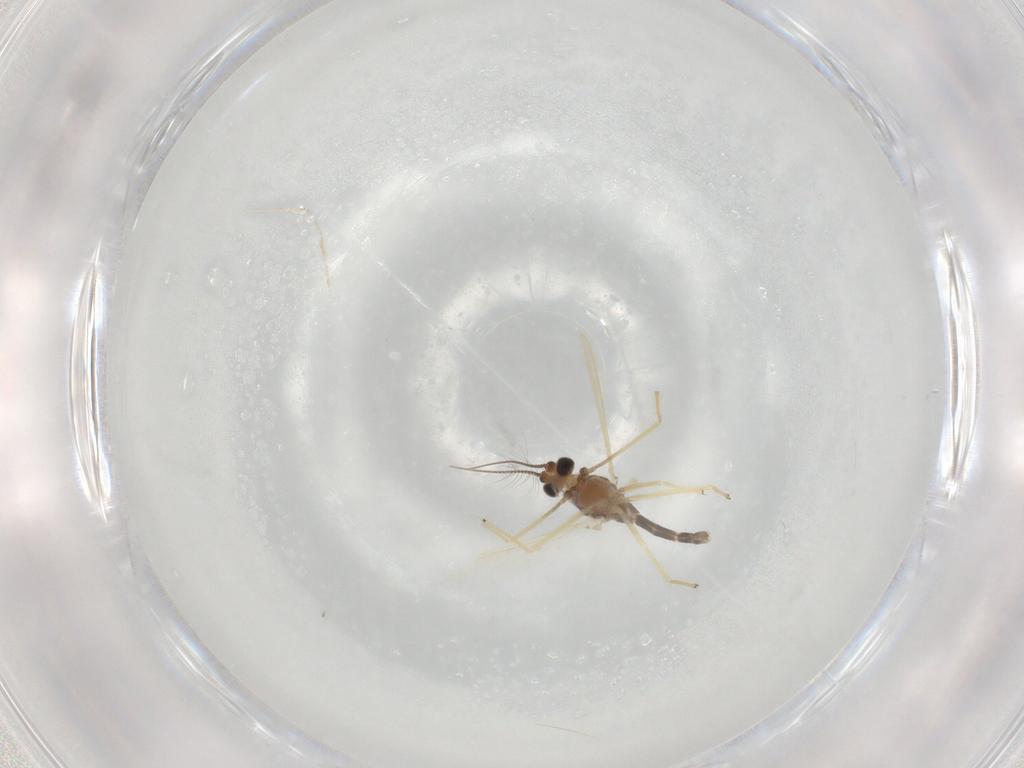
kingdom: Animalia
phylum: Arthropoda
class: Insecta
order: Diptera
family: Chironomidae
